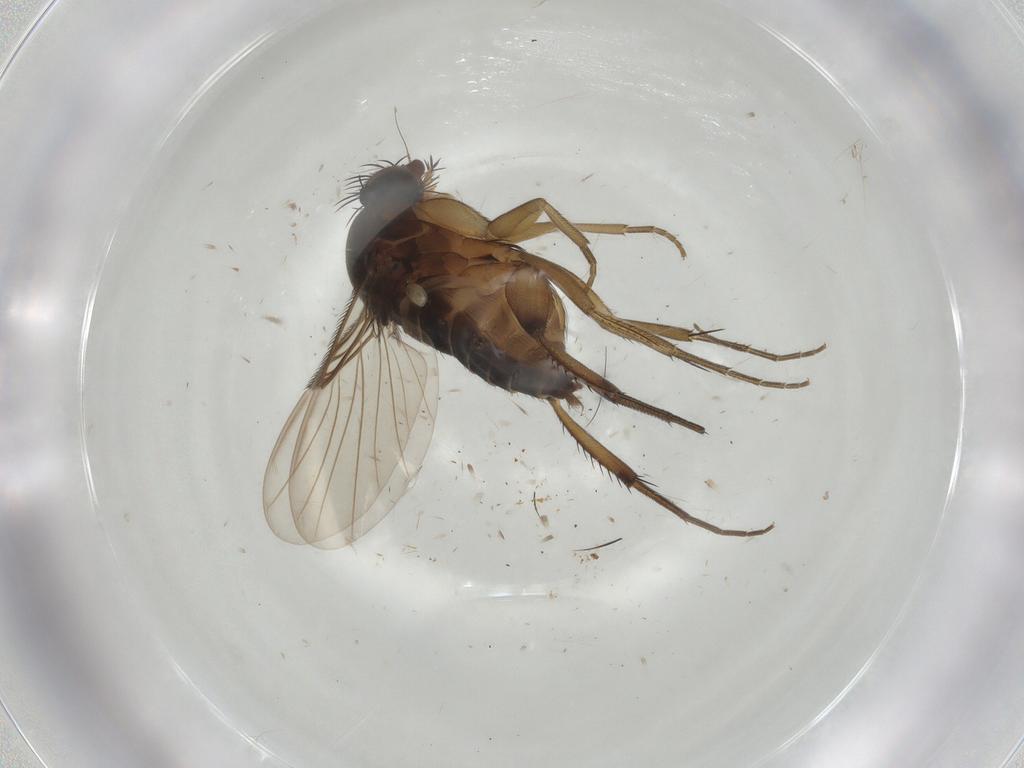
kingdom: Animalia
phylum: Arthropoda
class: Insecta
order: Diptera
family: Phoridae
